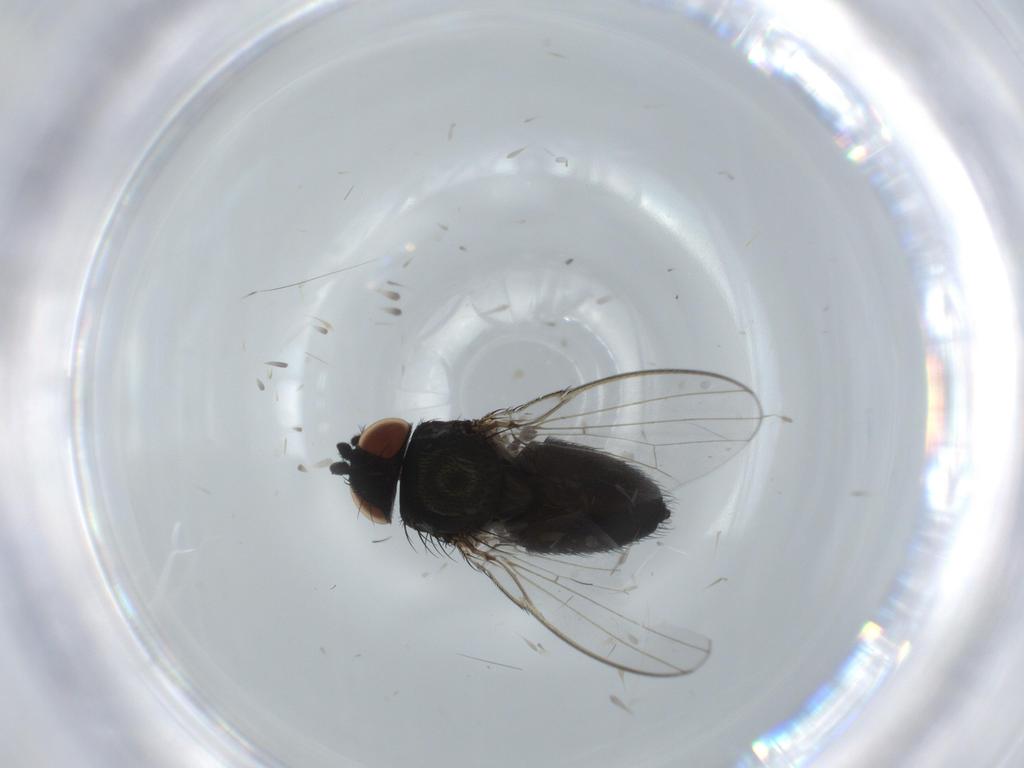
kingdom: Animalia
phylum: Arthropoda
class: Insecta
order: Diptera
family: Milichiidae
